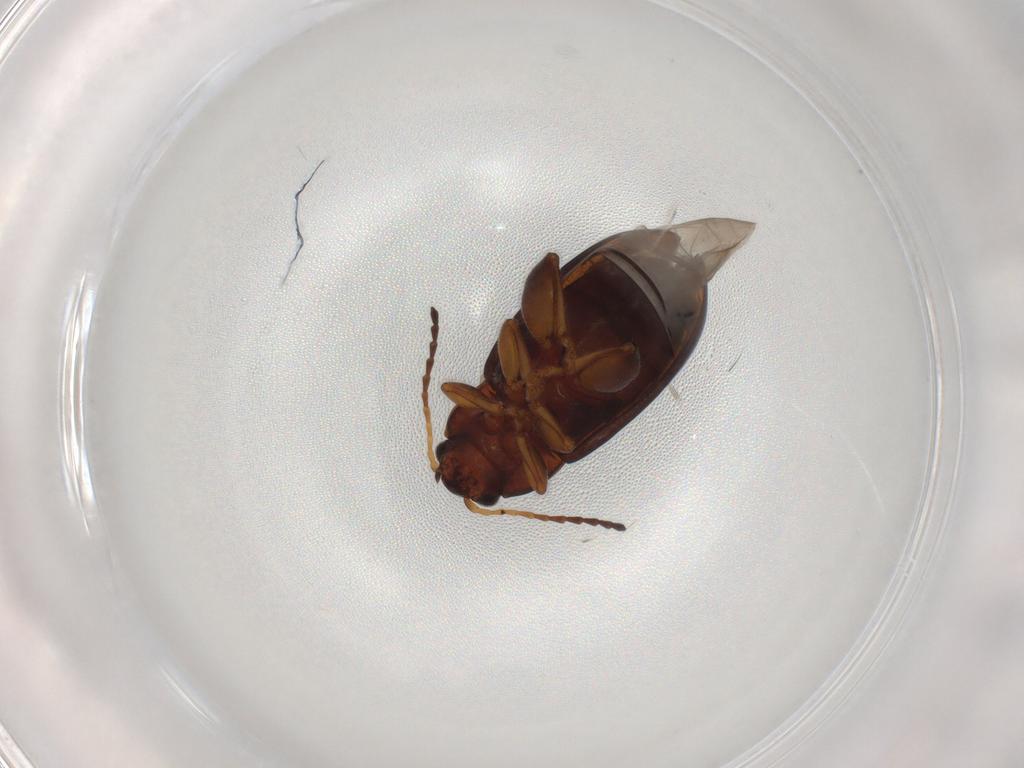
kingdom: Animalia
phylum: Arthropoda
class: Insecta
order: Coleoptera
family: Chrysomelidae
